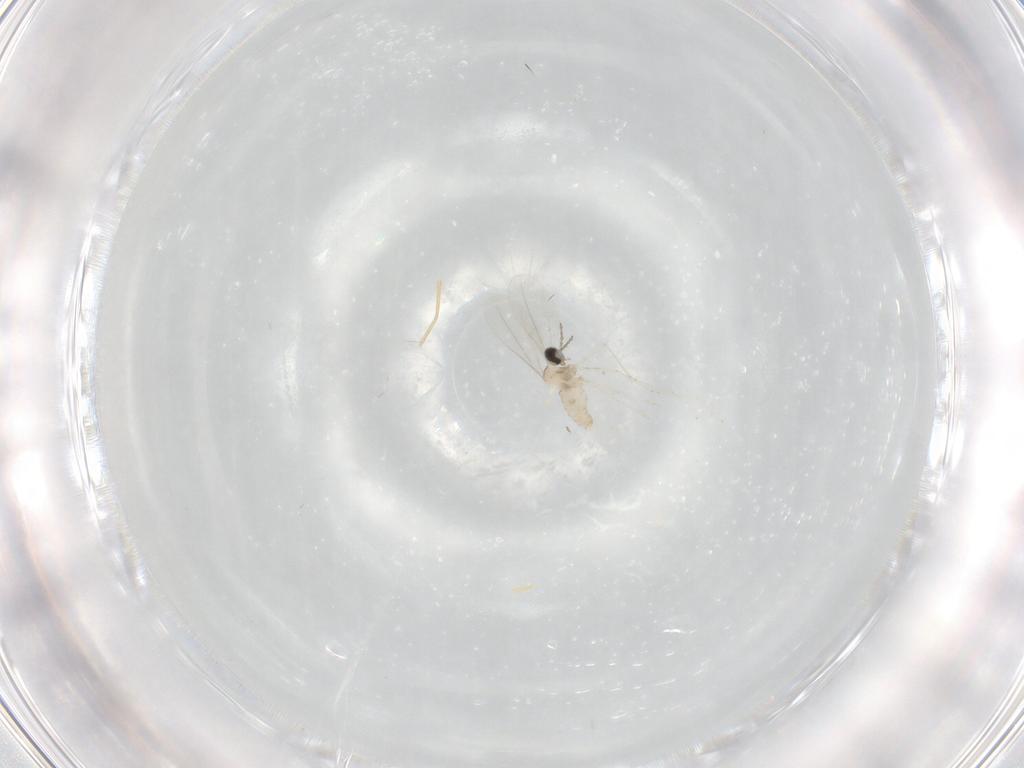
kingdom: Animalia
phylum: Arthropoda
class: Insecta
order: Diptera
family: Cecidomyiidae
